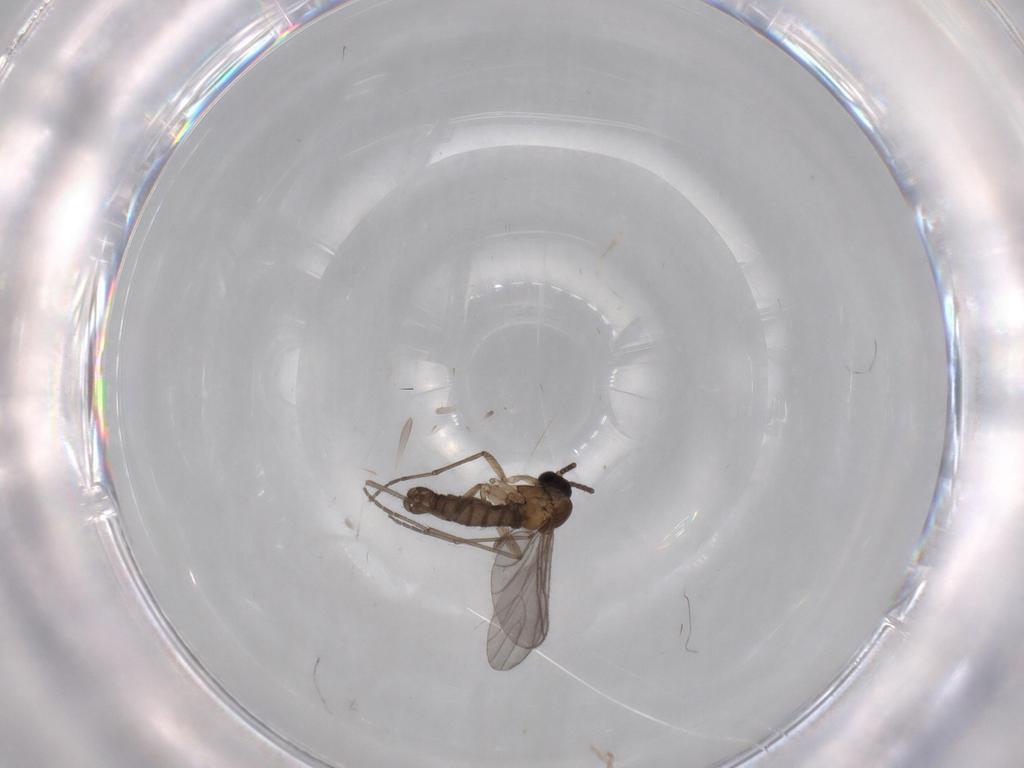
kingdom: Animalia
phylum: Arthropoda
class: Insecta
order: Diptera
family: Sciaridae
